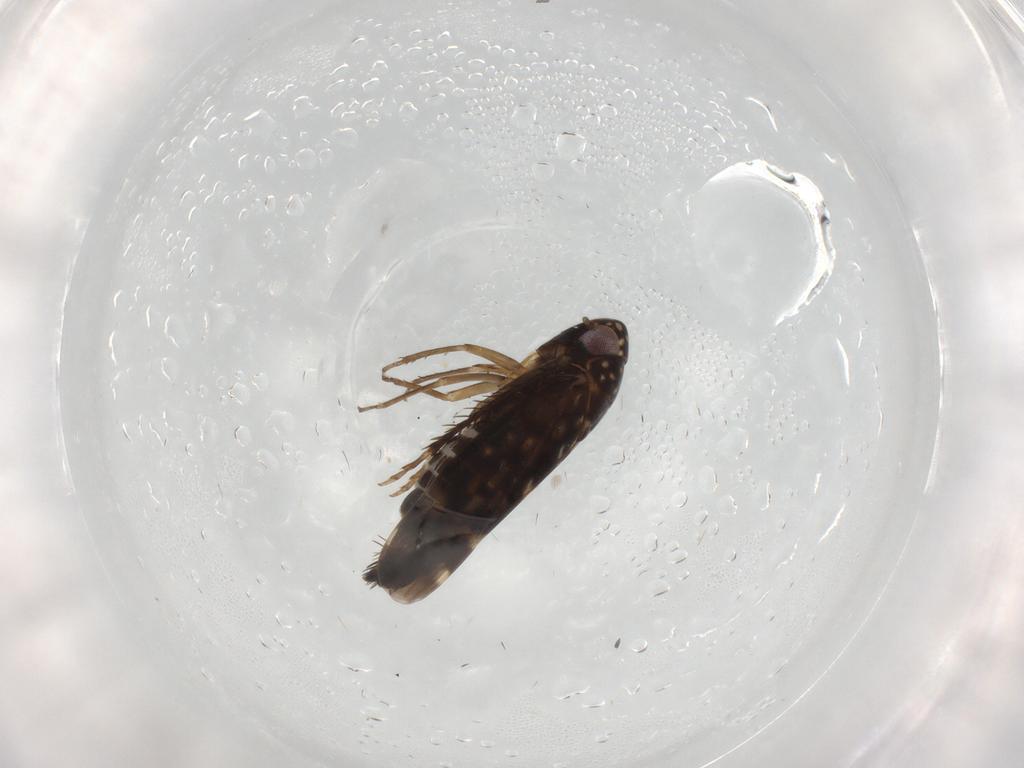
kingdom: Animalia
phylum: Arthropoda
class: Insecta
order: Hemiptera
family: Cicadellidae
